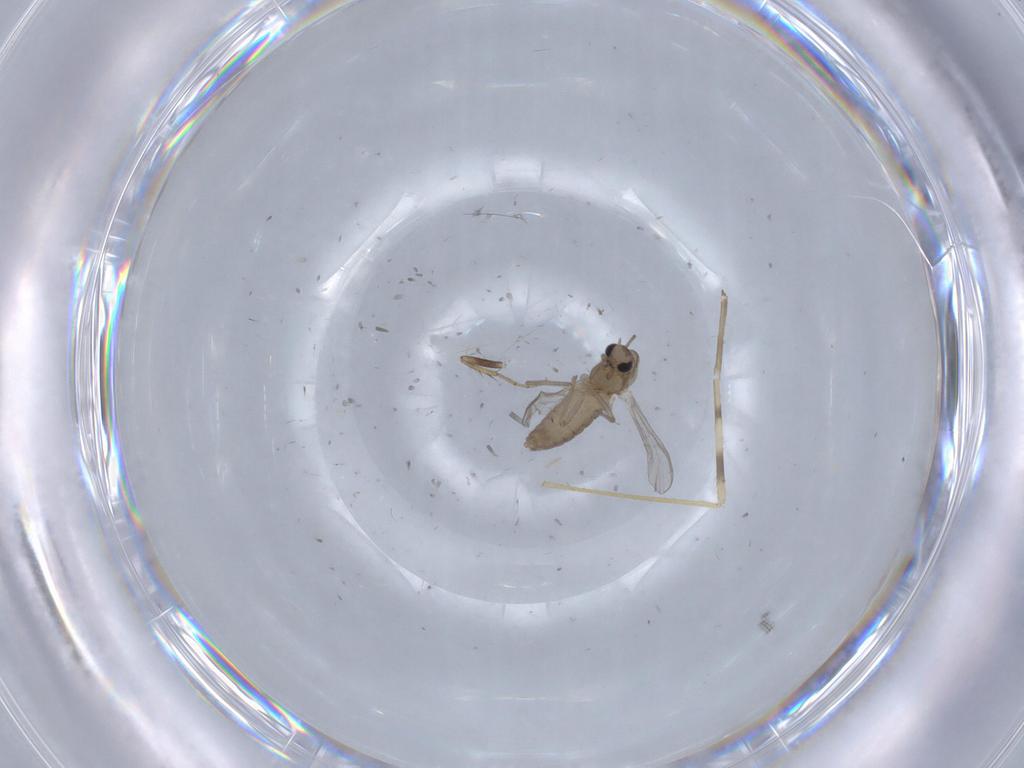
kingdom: Animalia
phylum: Arthropoda
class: Insecta
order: Diptera
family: Chironomidae
